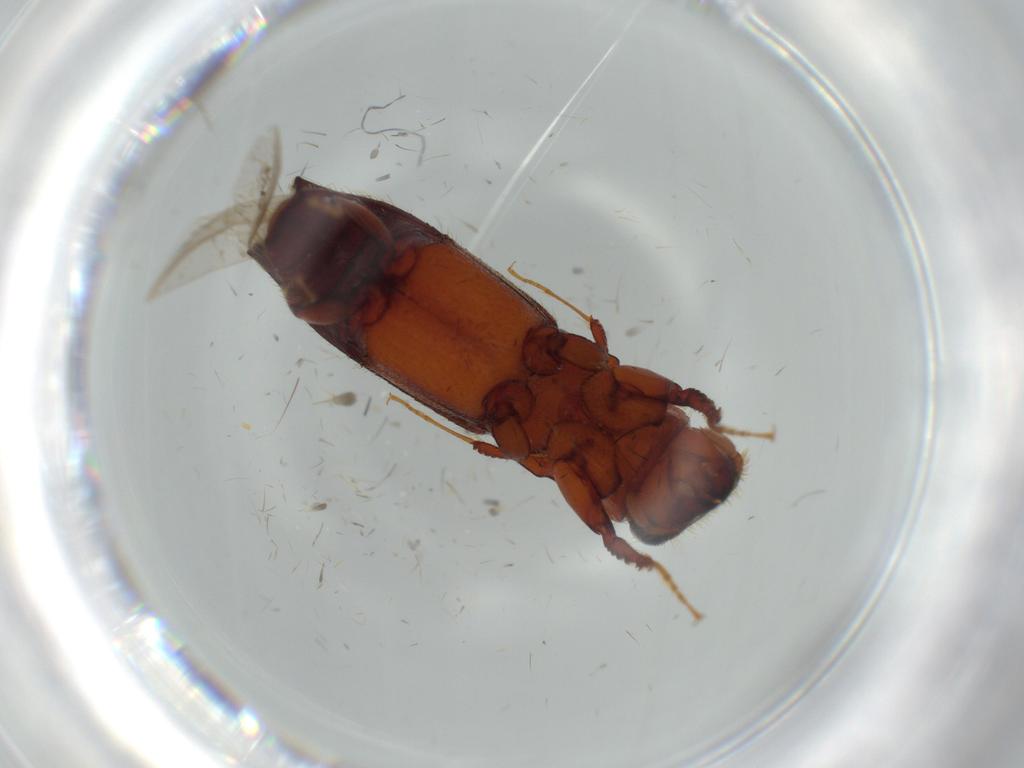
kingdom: Animalia
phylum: Arthropoda
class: Insecta
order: Coleoptera
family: Curculionidae
